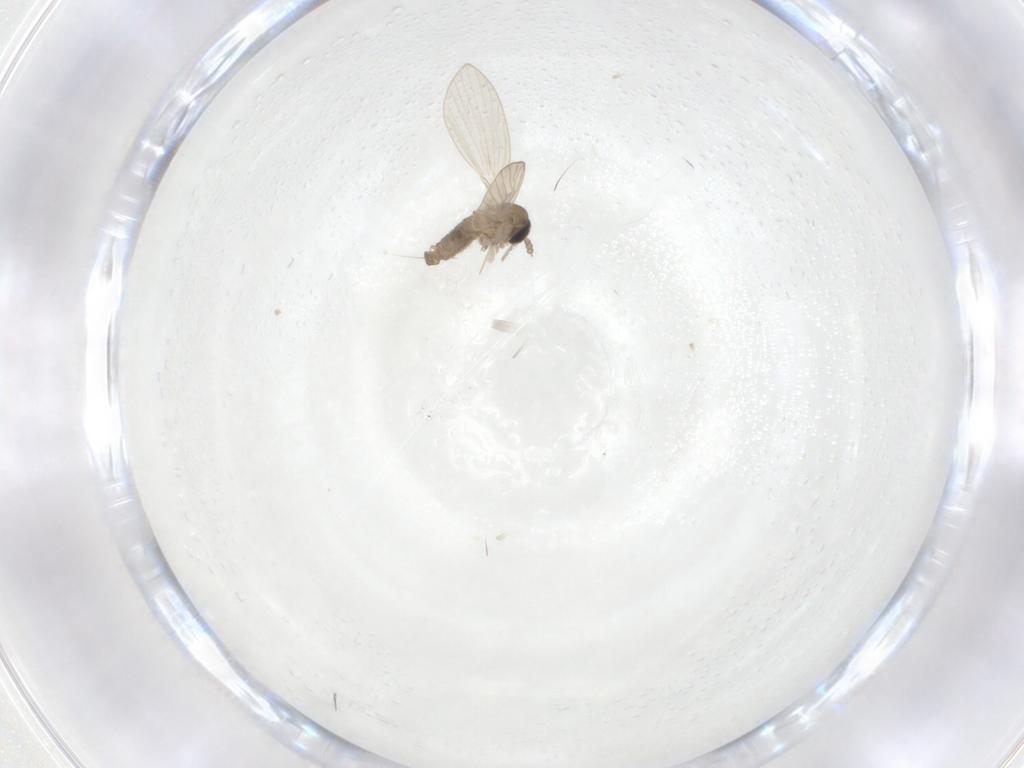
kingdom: Animalia
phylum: Arthropoda
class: Insecta
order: Diptera
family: Psychodidae
